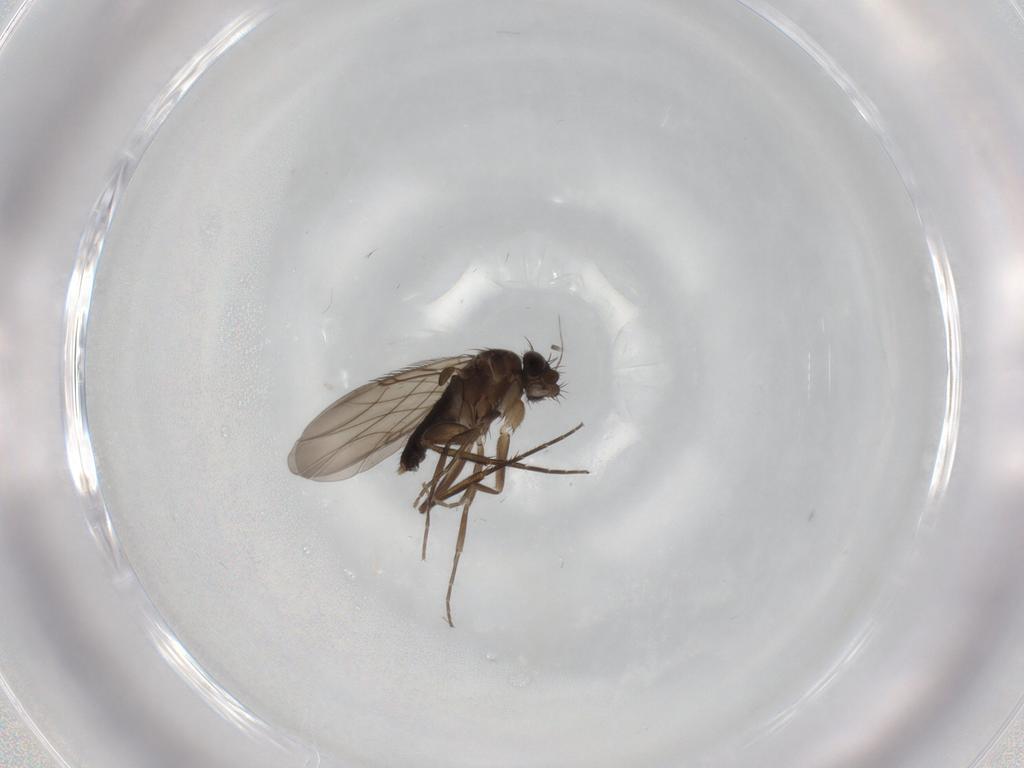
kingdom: Animalia
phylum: Arthropoda
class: Insecta
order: Diptera
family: Phoridae
